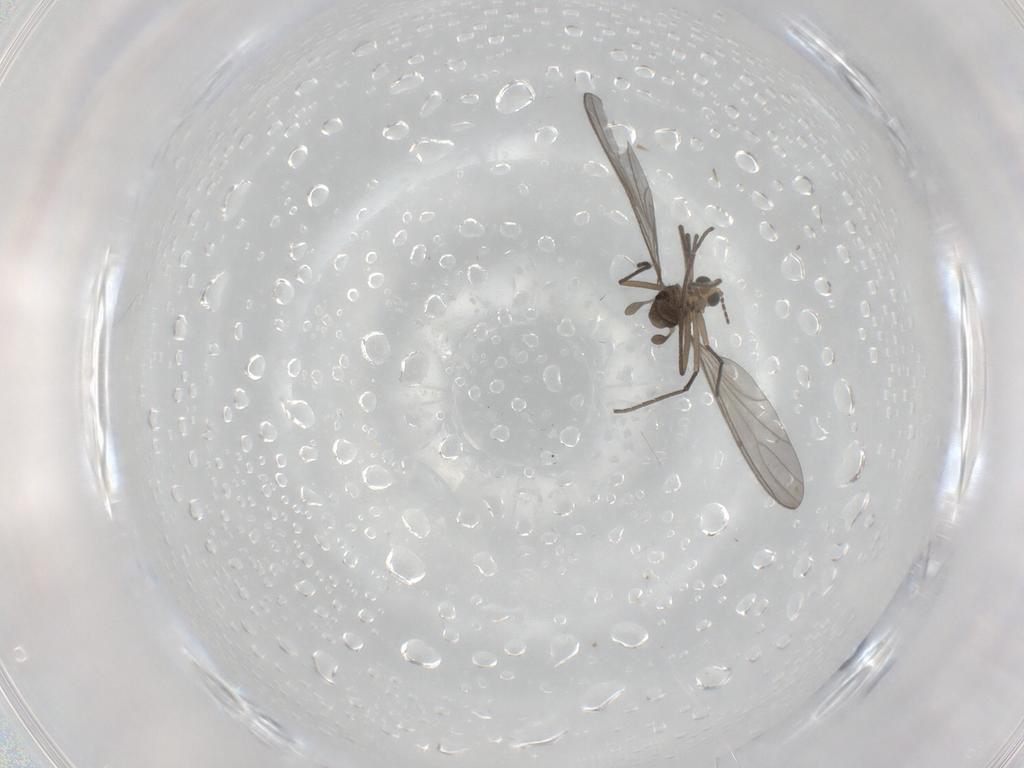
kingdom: Animalia
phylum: Arthropoda
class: Insecta
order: Diptera
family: Sciaridae
